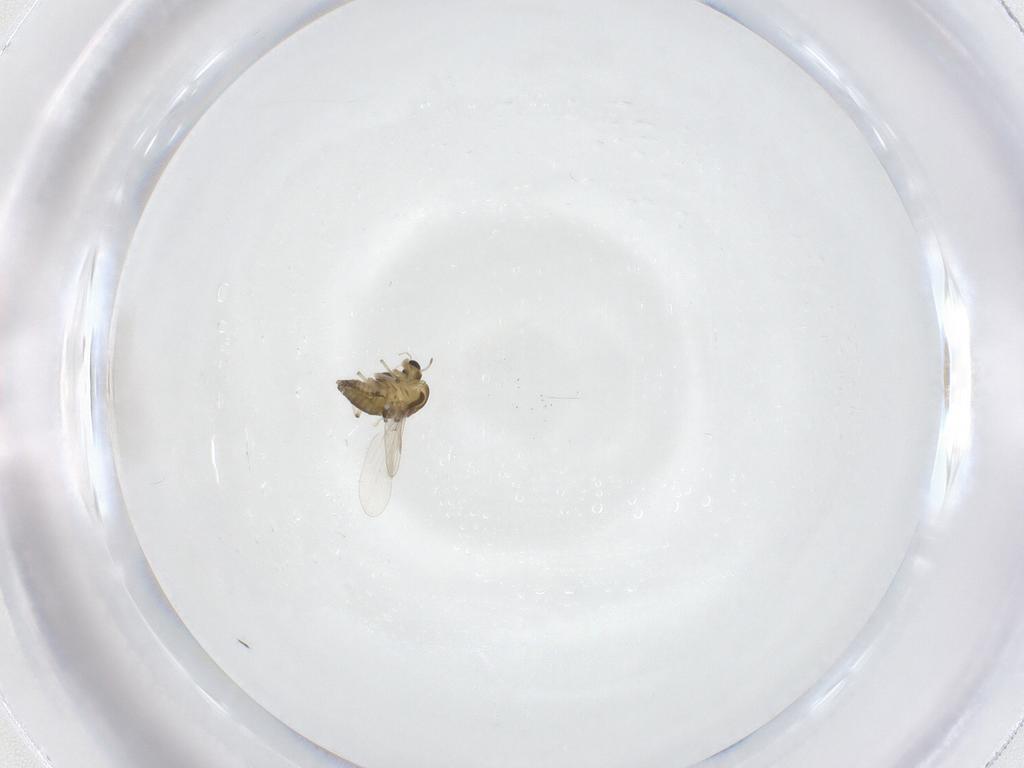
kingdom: Animalia
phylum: Arthropoda
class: Insecta
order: Diptera
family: Chironomidae
